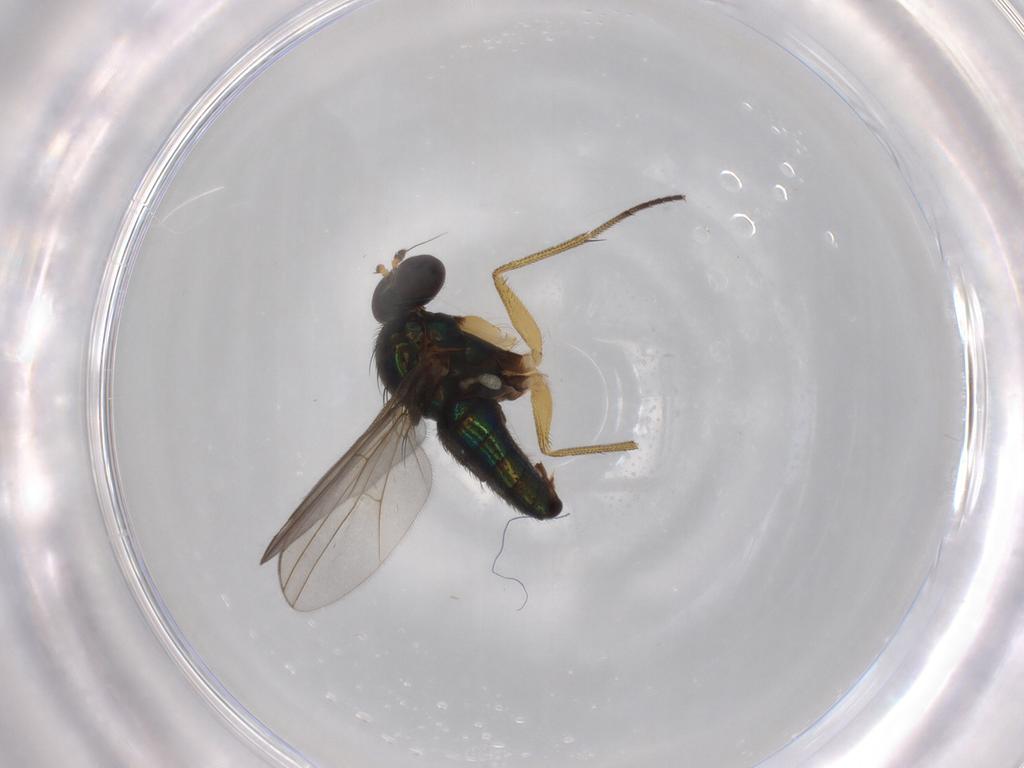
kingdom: Animalia
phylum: Arthropoda
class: Insecta
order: Diptera
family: Dolichopodidae
